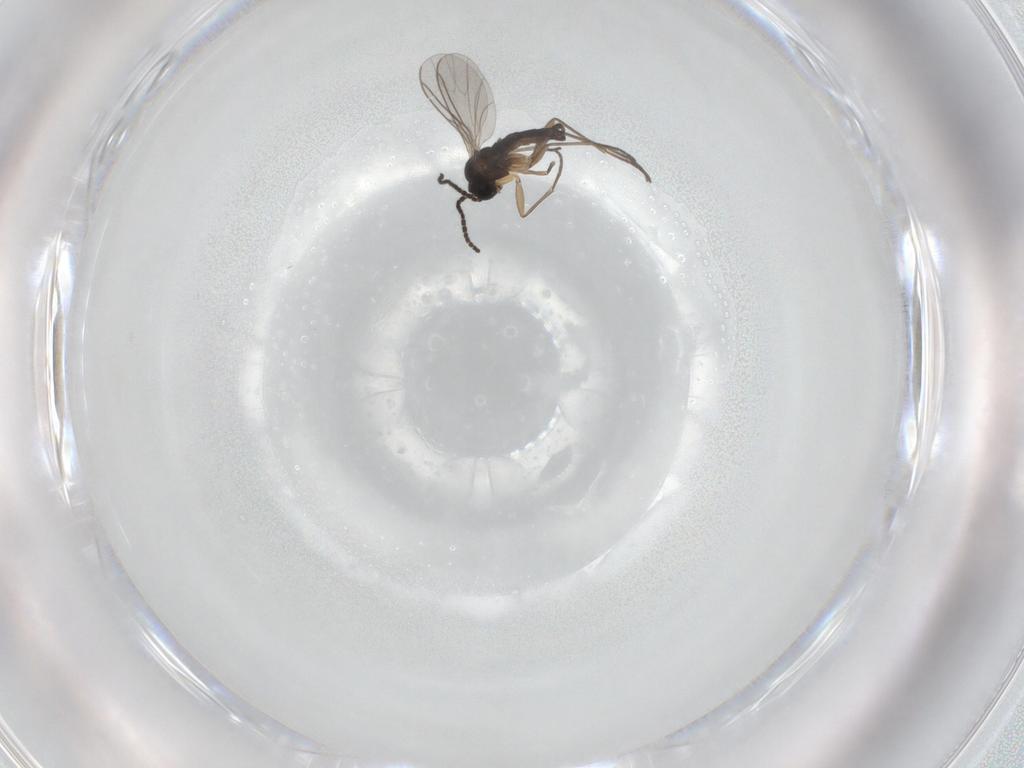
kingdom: Animalia
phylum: Arthropoda
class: Insecta
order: Diptera
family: Sciaridae
